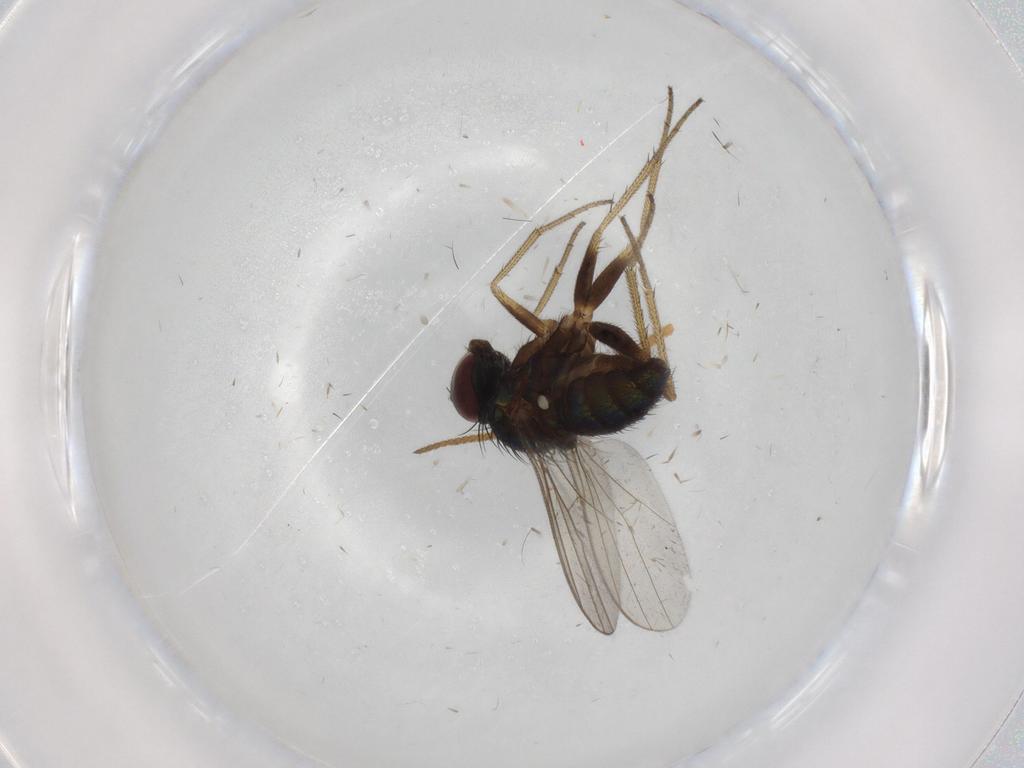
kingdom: Animalia
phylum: Arthropoda
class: Insecta
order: Diptera
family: Dolichopodidae
